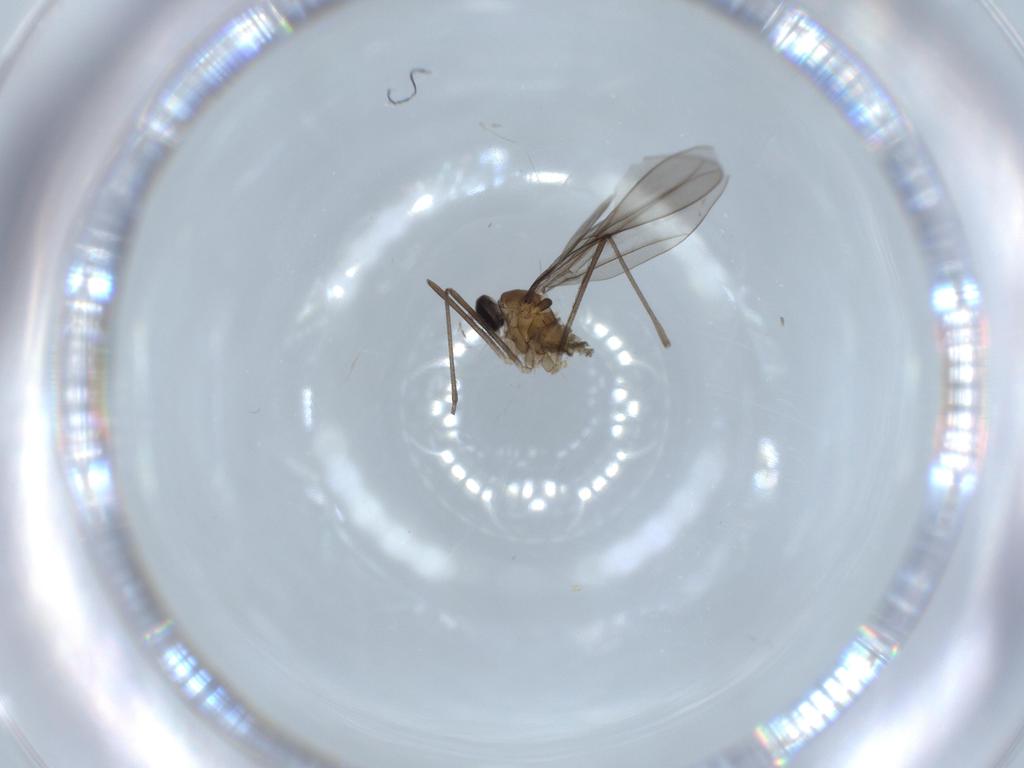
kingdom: Animalia
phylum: Arthropoda
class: Insecta
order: Diptera
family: Cecidomyiidae
